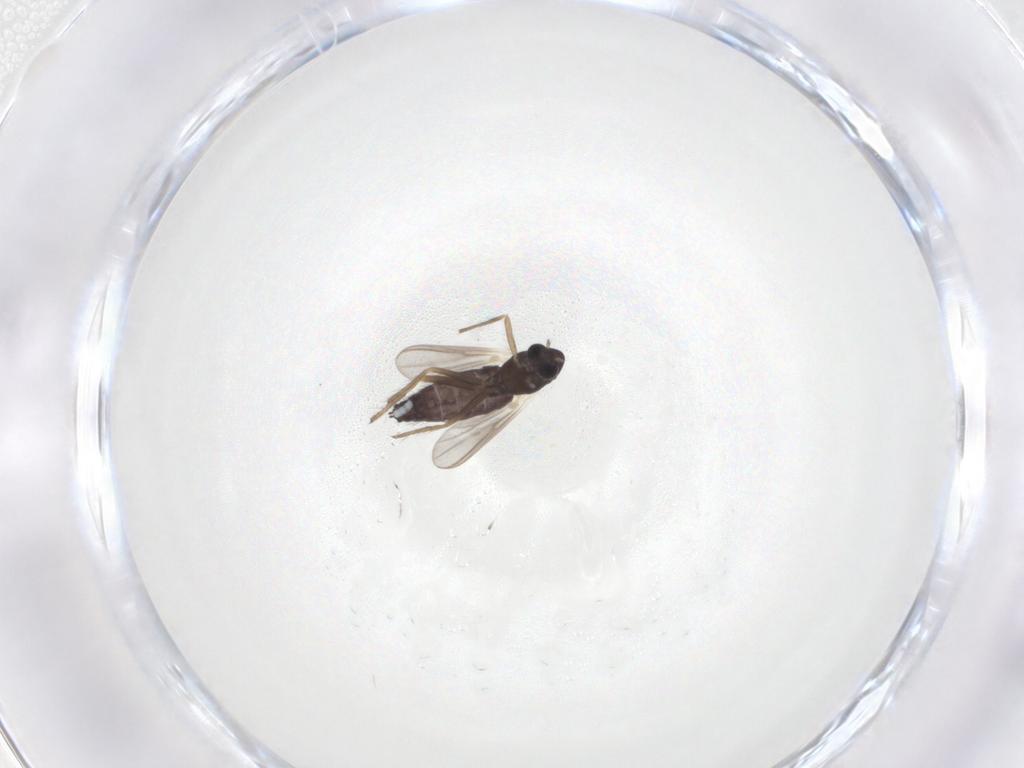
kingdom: Animalia
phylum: Arthropoda
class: Insecta
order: Diptera
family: Chironomidae
